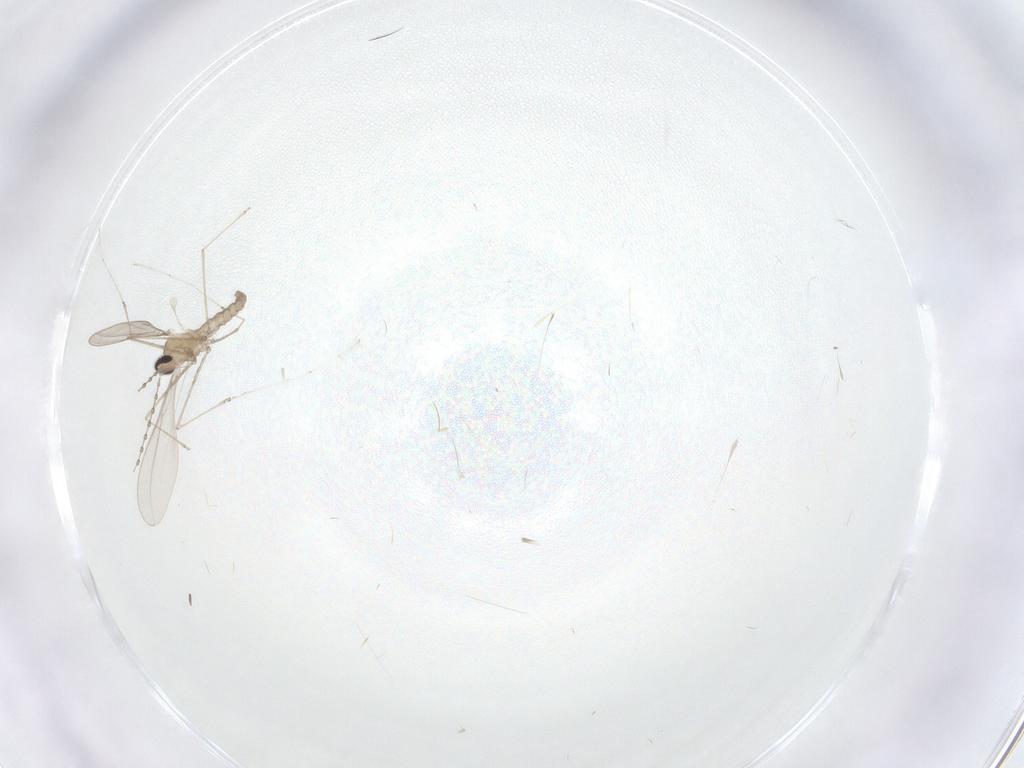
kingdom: Animalia
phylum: Arthropoda
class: Insecta
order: Diptera
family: Cecidomyiidae
